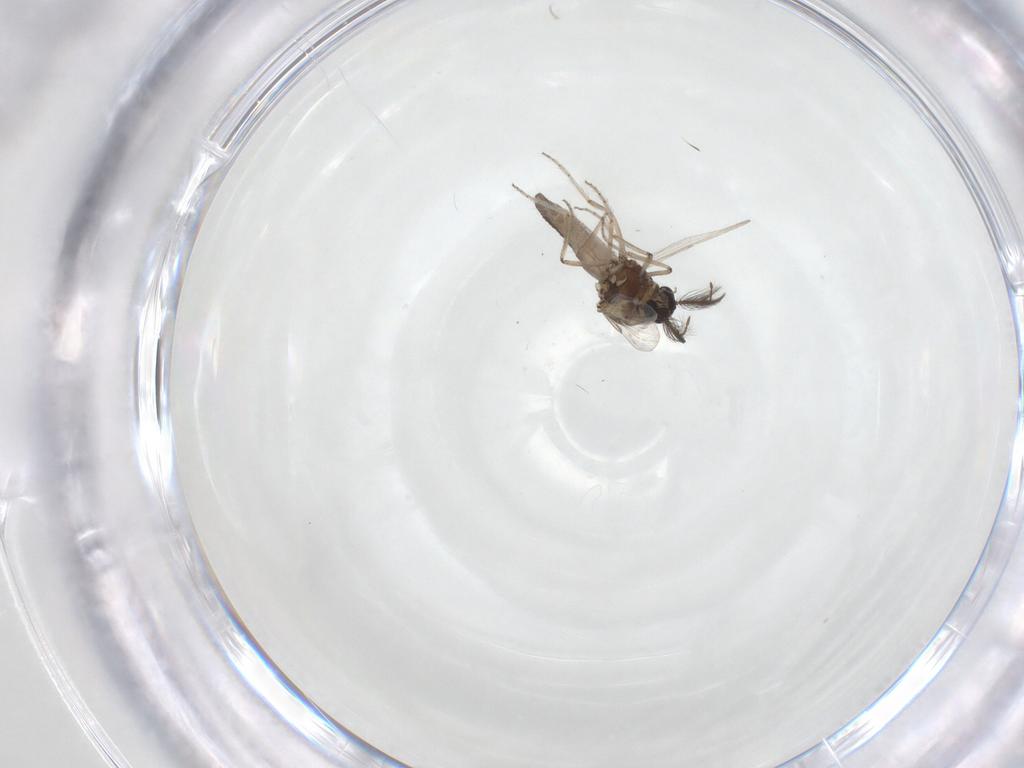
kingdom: Animalia
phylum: Arthropoda
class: Insecta
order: Diptera
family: Ceratopogonidae
